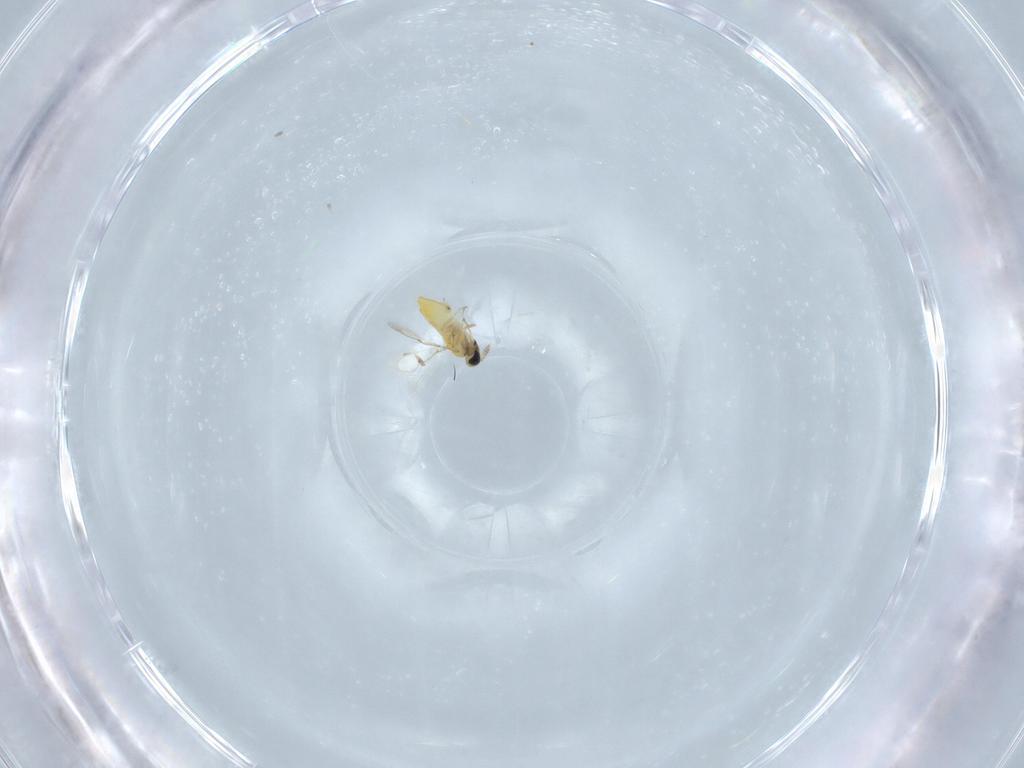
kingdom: Animalia
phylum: Arthropoda
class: Insecta
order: Hymenoptera
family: Trichogrammatidae
